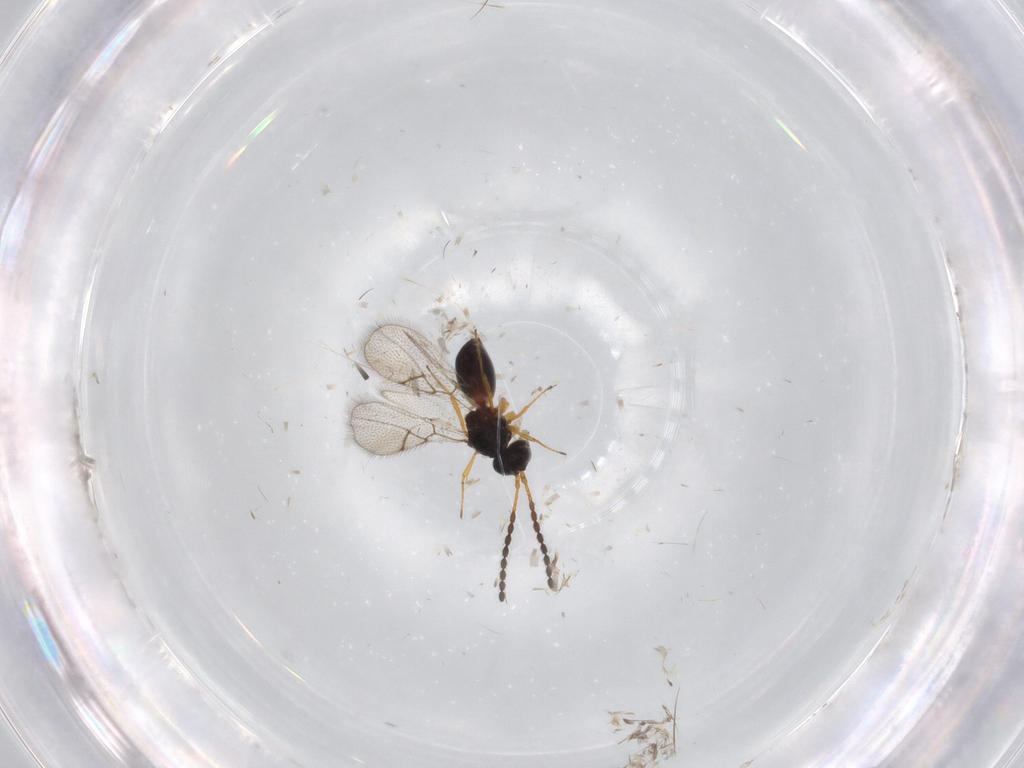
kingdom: Animalia
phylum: Arthropoda
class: Insecta
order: Hymenoptera
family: Figitidae
